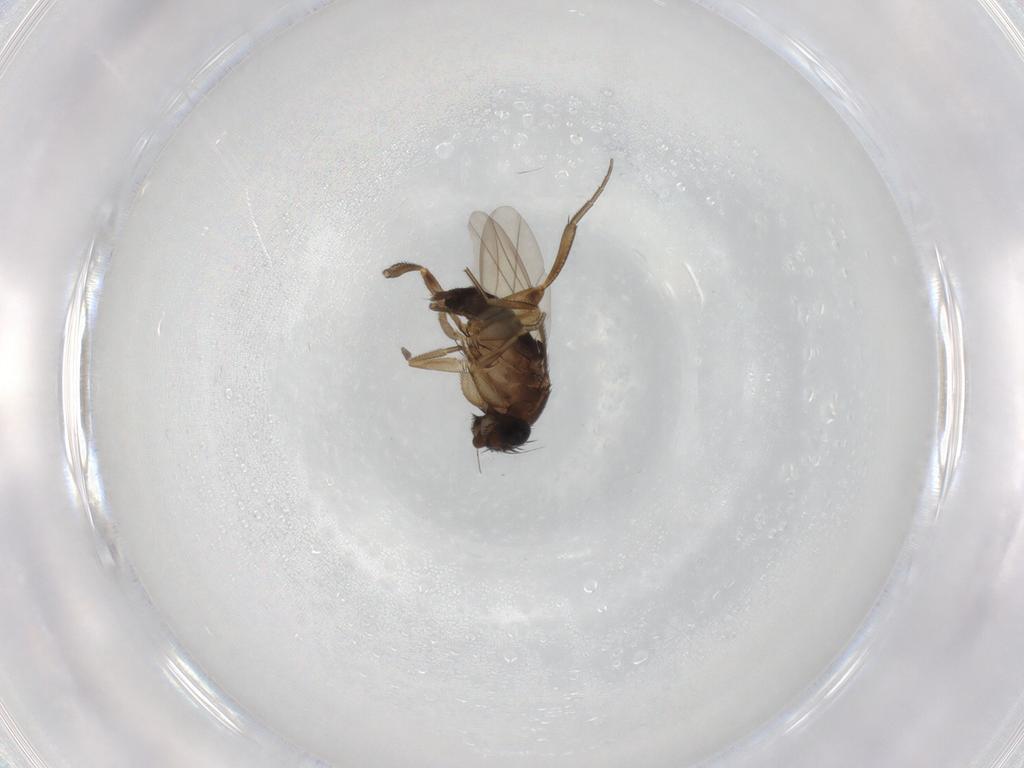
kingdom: Animalia
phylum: Arthropoda
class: Insecta
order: Diptera
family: Phoridae
